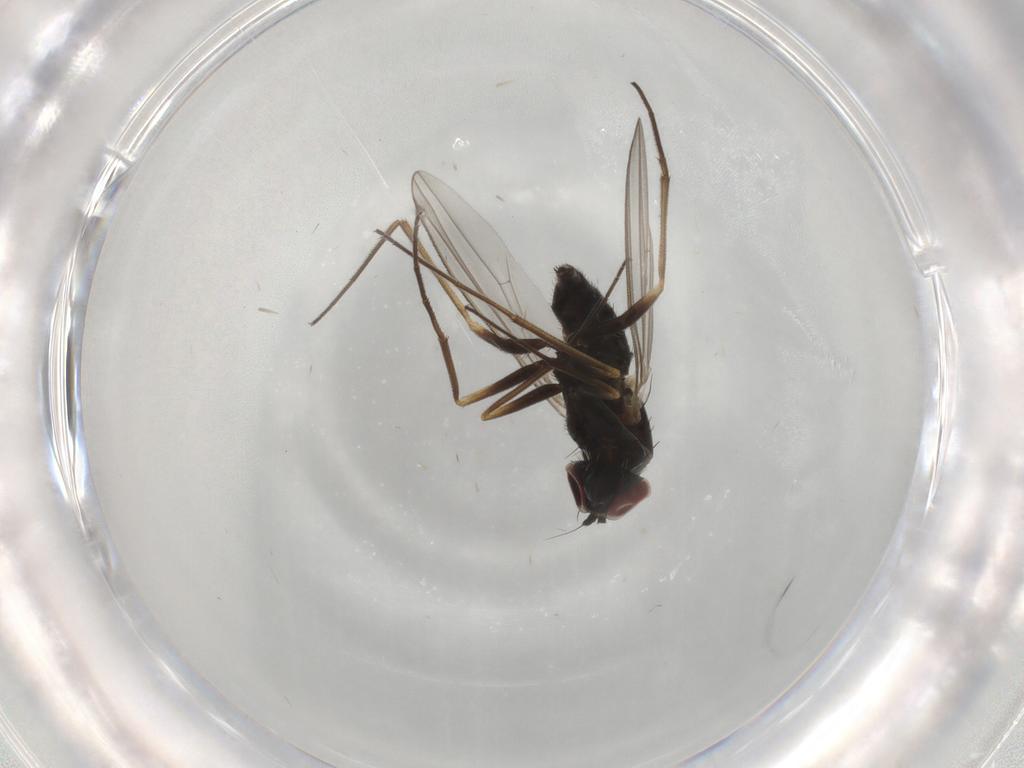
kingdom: Animalia
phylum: Arthropoda
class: Insecta
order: Diptera
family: Dolichopodidae
